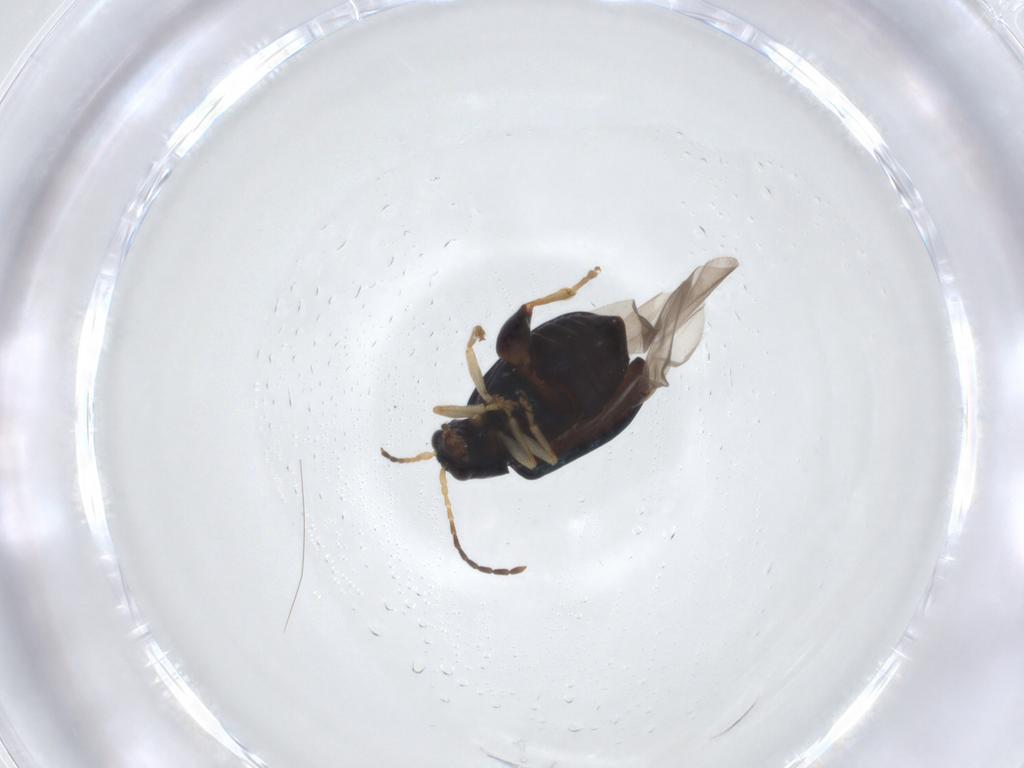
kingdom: Animalia
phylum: Arthropoda
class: Insecta
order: Coleoptera
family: Chrysomelidae
